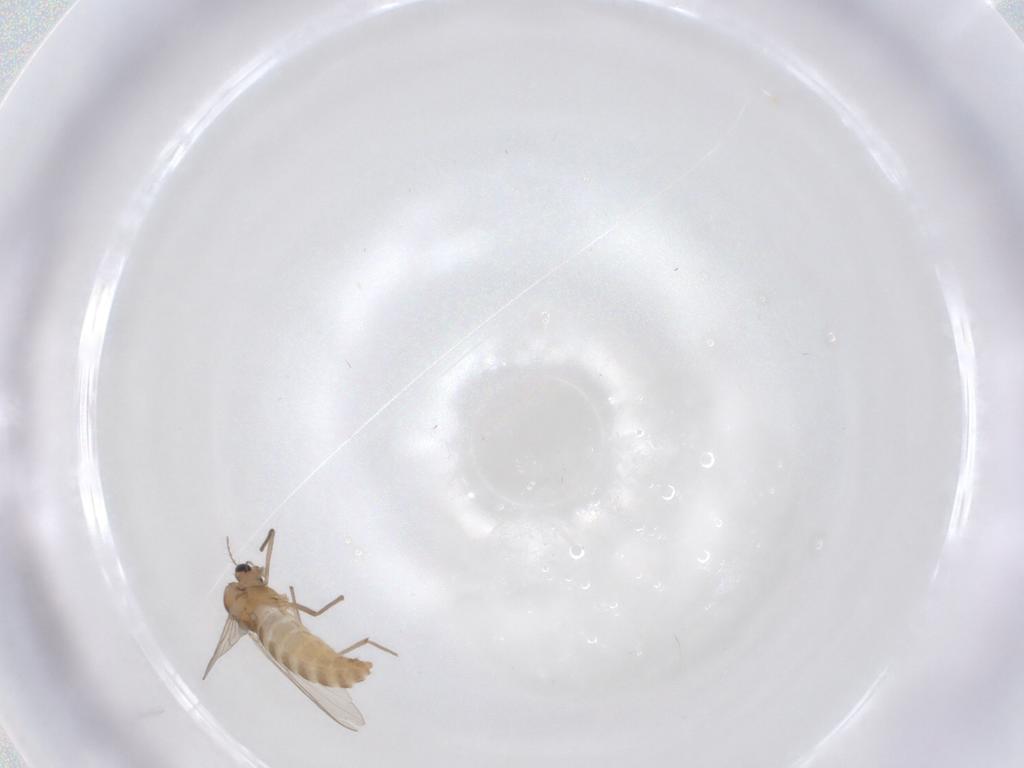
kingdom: Animalia
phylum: Arthropoda
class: Insecta
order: Diptera
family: Chironomidae
